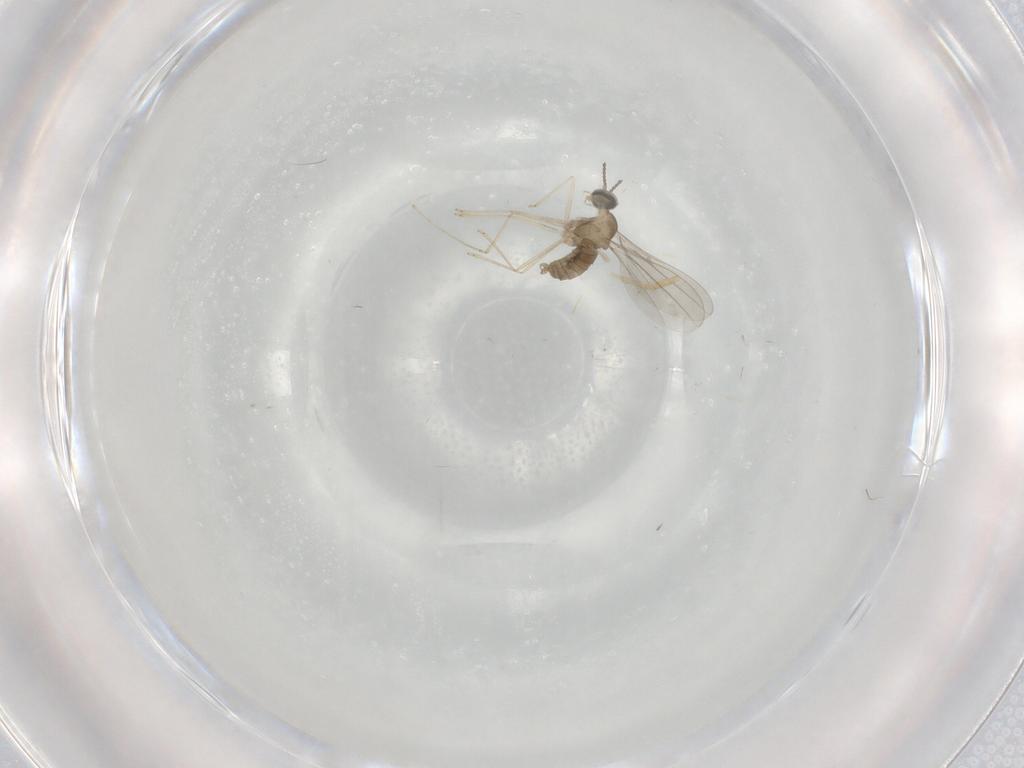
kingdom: Animalia
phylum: Arthropoda
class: Insecta
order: Diptera
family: Cecidomyiidae
